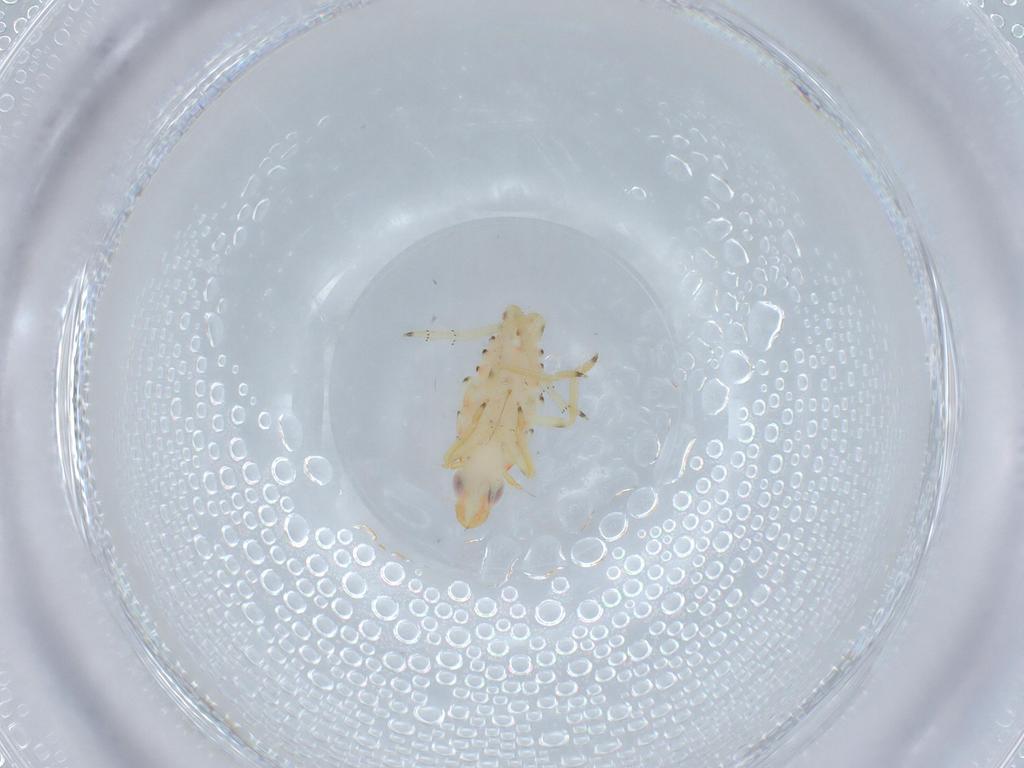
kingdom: Animalia
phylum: Arthropoda
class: Insecta
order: Hemiptera
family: Tropiduchidae
